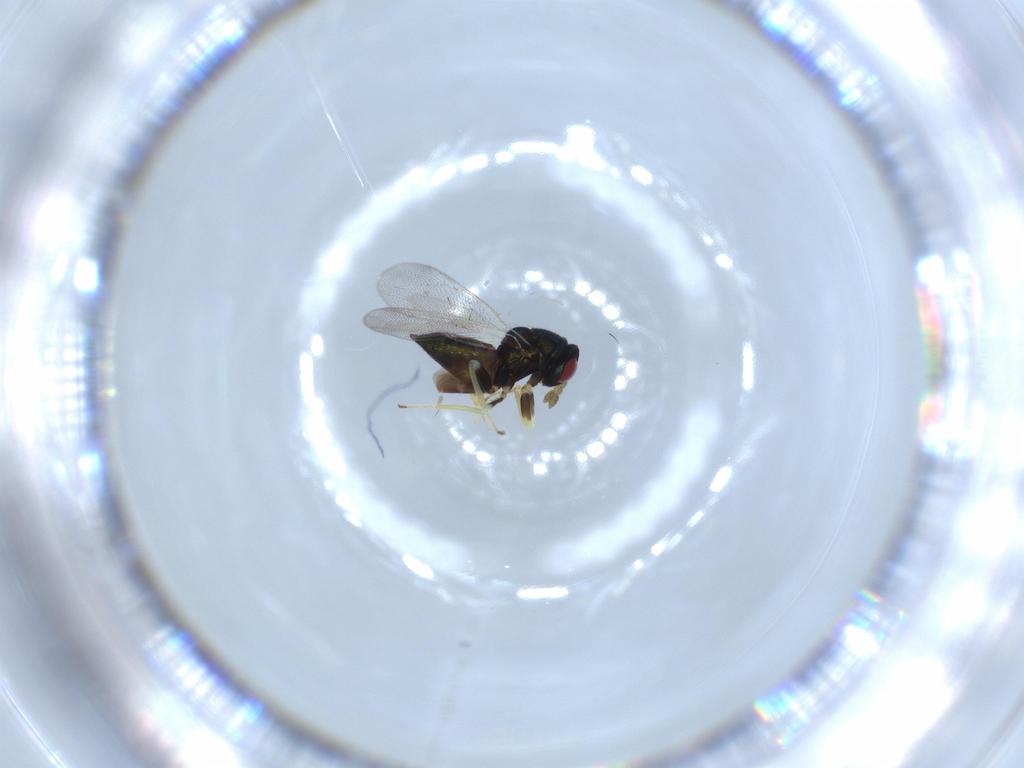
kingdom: Animalia
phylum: Arthropoda
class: Insecta
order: Hymenoptera
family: Eulophidae
